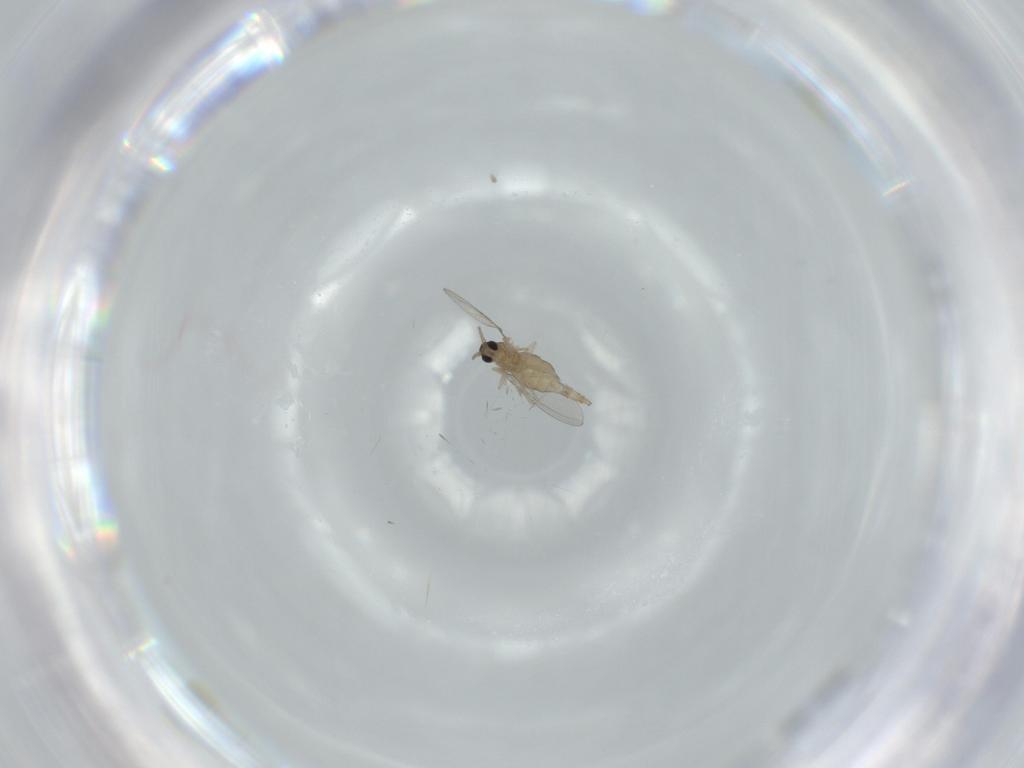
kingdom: Animalia
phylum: Arthropoda
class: Insecta
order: Diptera
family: Cecidomyiidae
